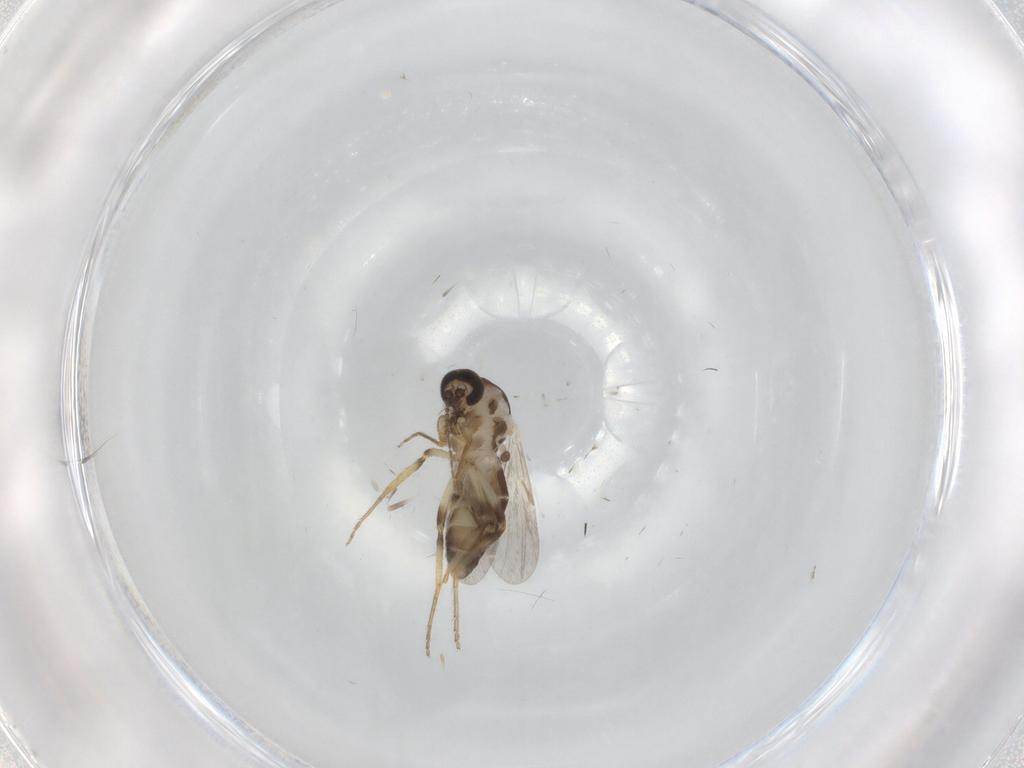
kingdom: Animalia
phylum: Arthropoda
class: Insecta
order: Diptera
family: Ceratopogonidae
